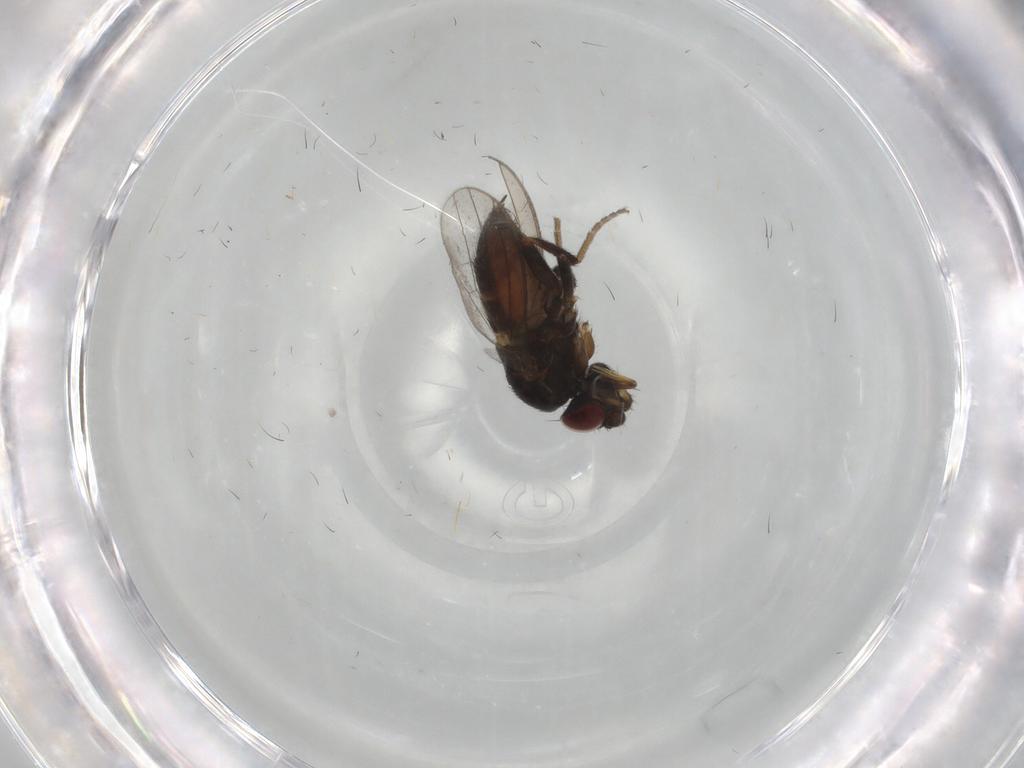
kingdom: Animalia
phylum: Arthropoda
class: Insecta
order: Diptera
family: Milichiidae
